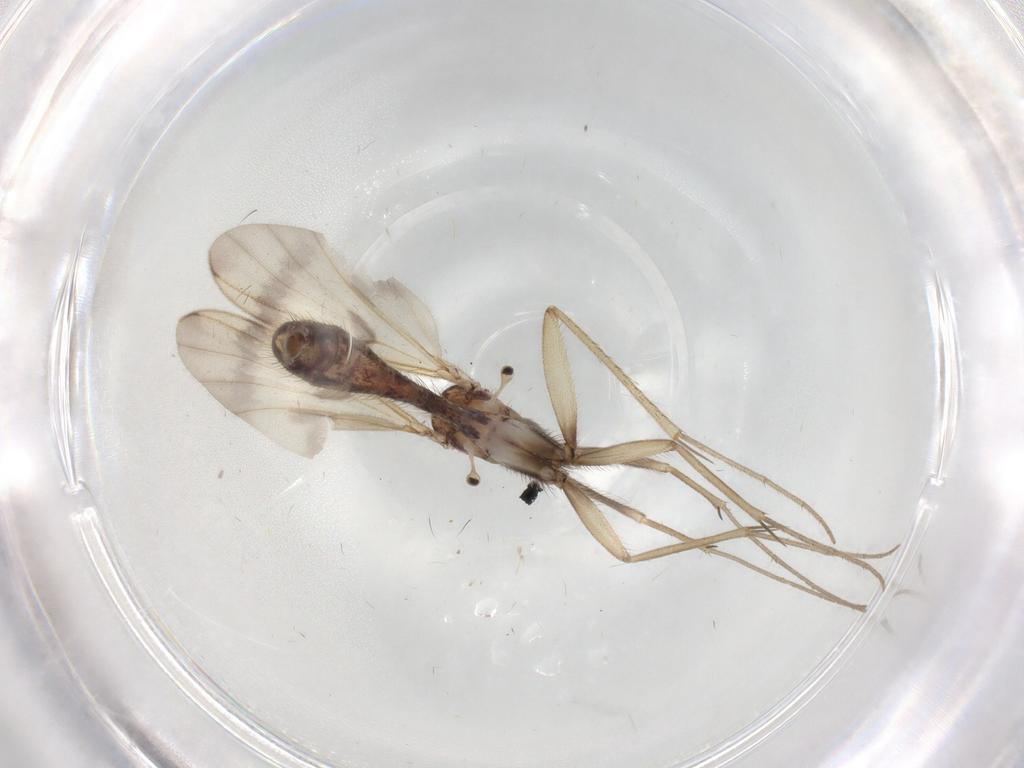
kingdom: Animalia
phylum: Arthropoda
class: Insecta
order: Diptera
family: Mycetophilidae
